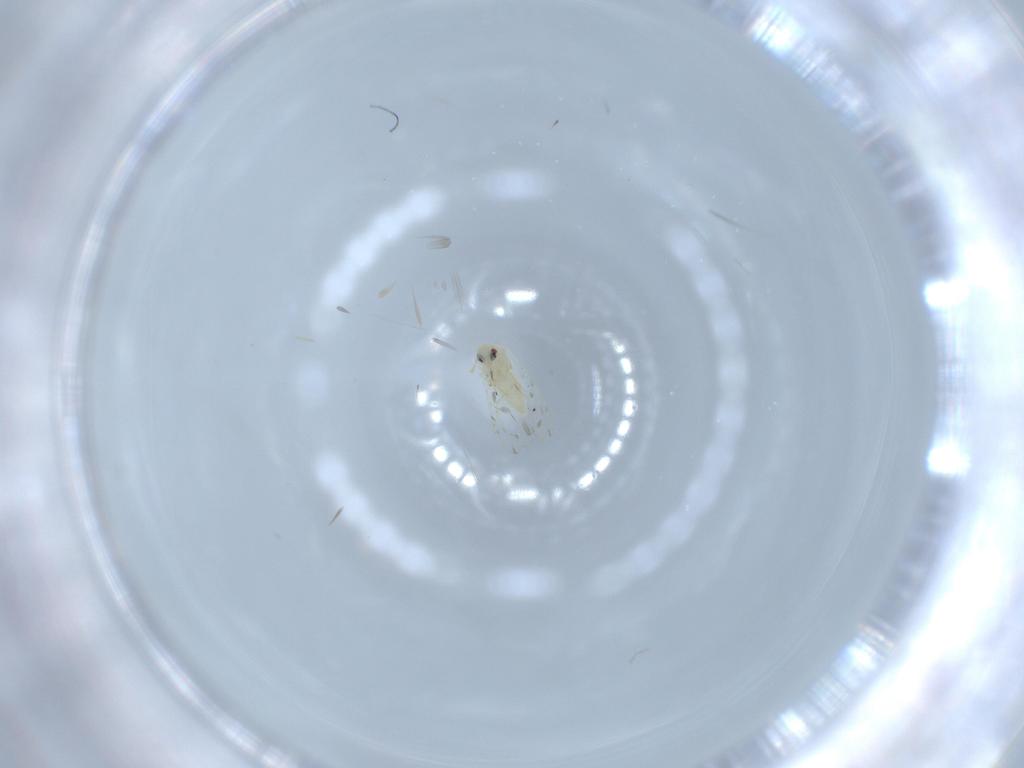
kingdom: Animalia
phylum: Arthropoda
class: Insecta
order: Hemiptera
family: Aleyrodidae
